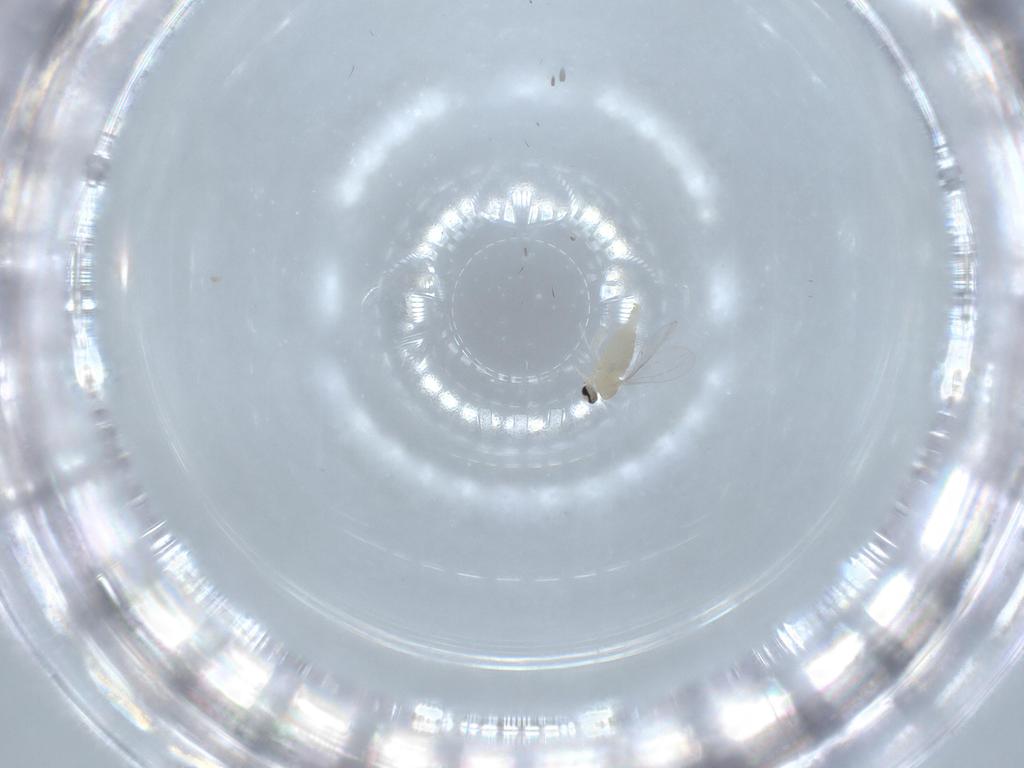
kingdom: Animalia
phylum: Arthropoda
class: Insecta
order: Diptera
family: Cecidomyiidae
